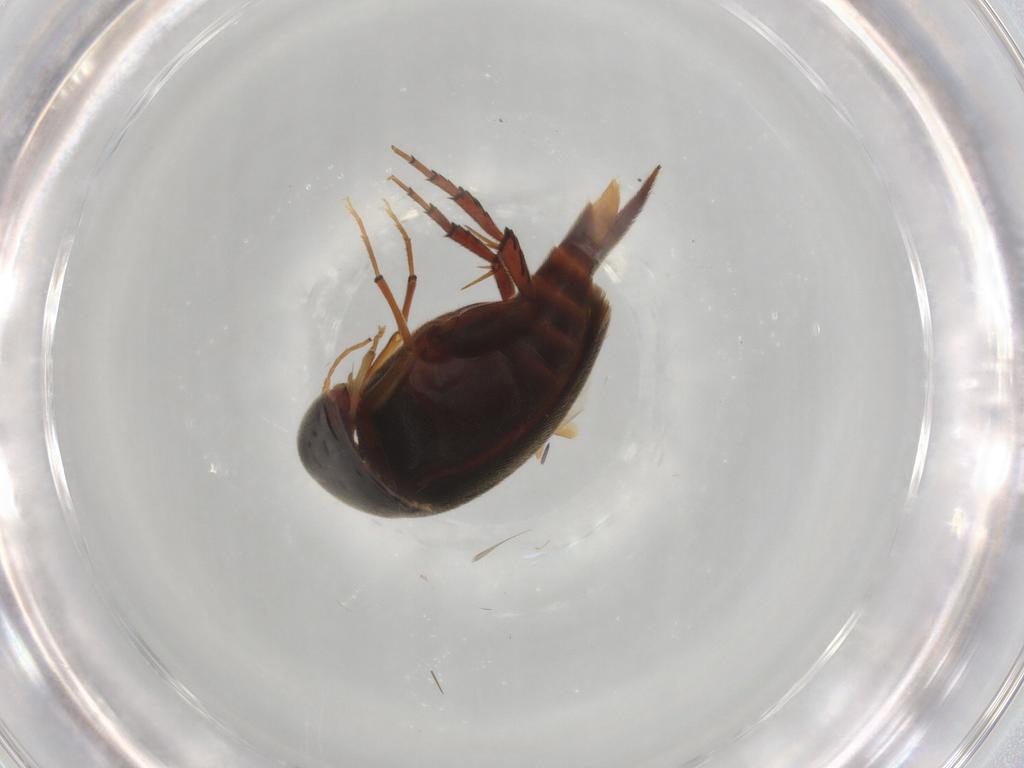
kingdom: Animalia
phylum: Arthropoda
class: Insecta
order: Coleoptera
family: Mordellidae
